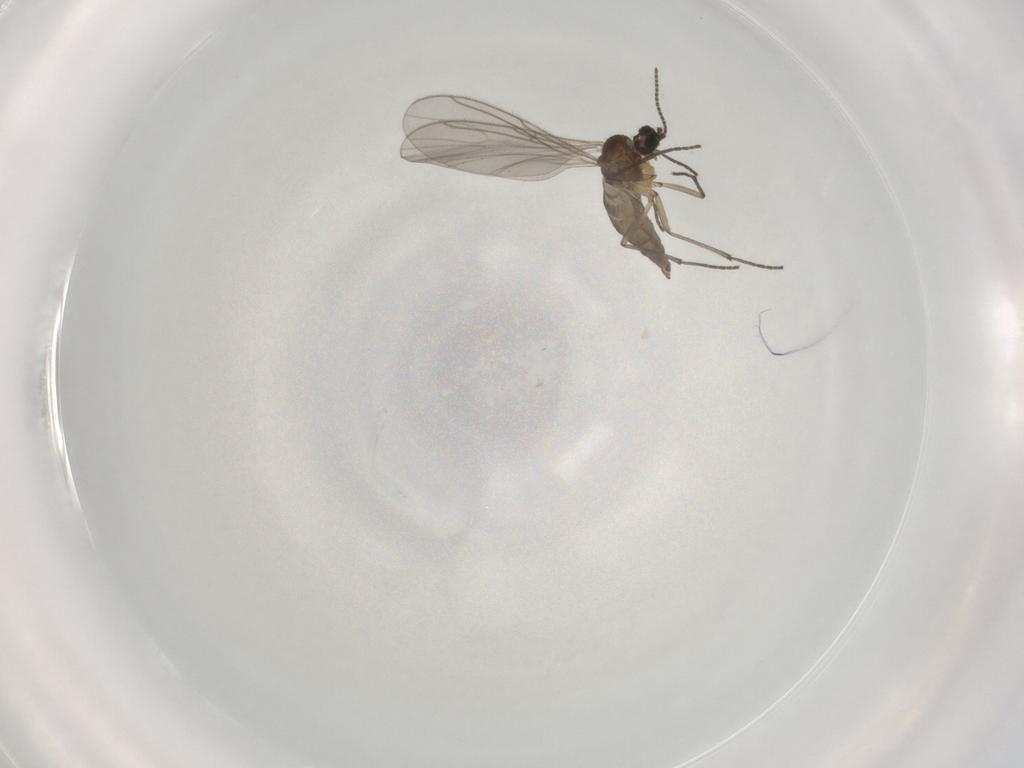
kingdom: Animalia
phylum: Arthropoda
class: Insecta
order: Diptera
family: Sciaridae
